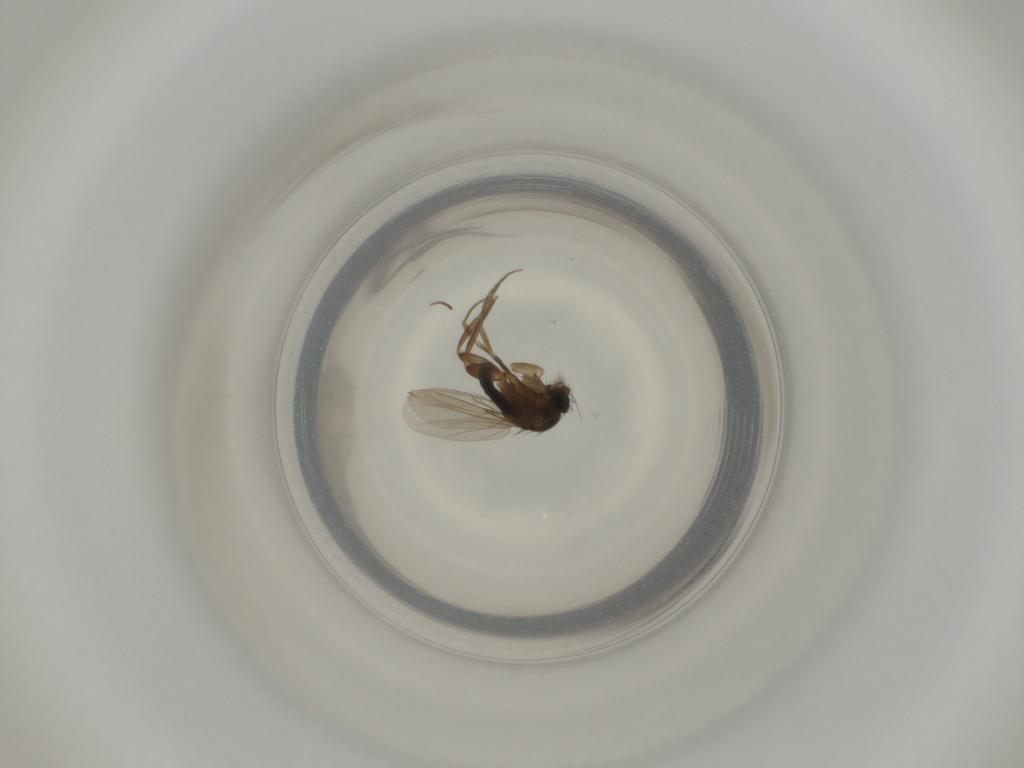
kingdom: Animalia
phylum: Arthropoda
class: Insecta
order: Diptera
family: Phoridae
